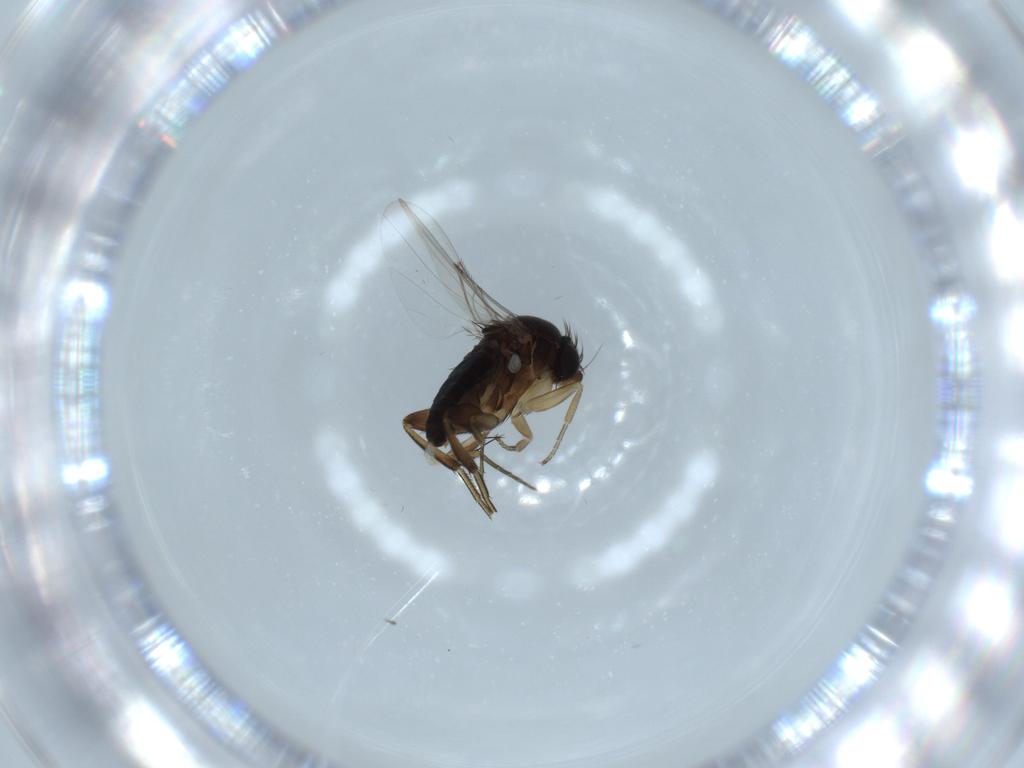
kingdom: Animalia
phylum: Arthropoda
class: Insecta
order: Diptera
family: Phoridae
